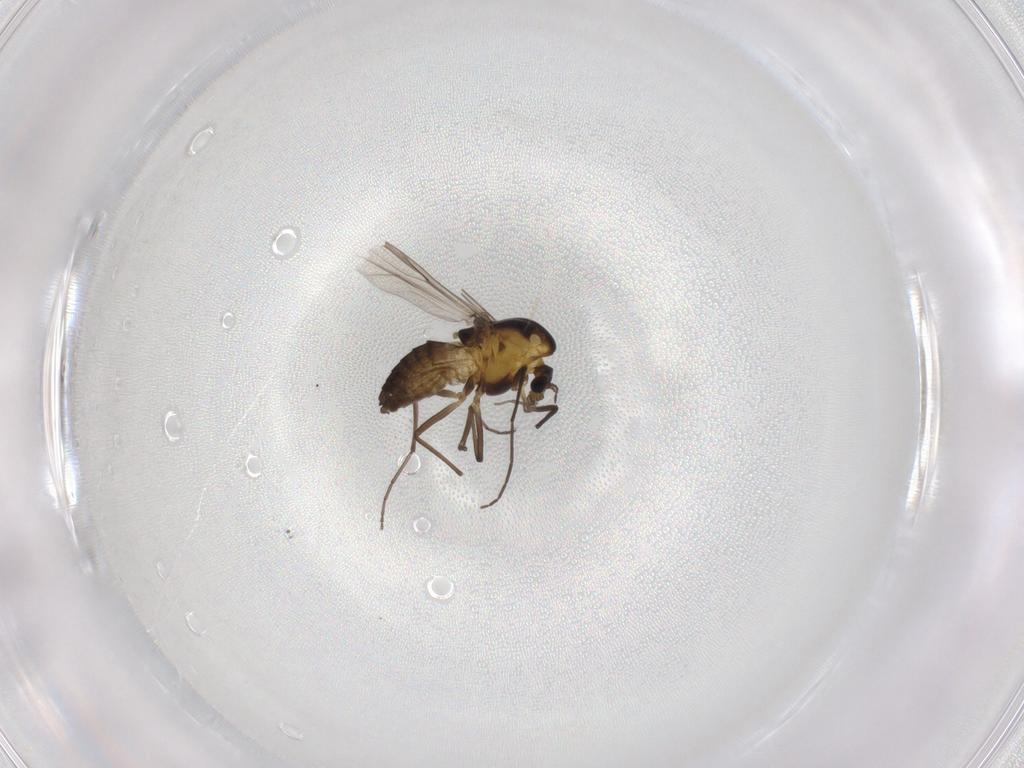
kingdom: Animalia
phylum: Arthropoda
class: Insecta
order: Diptera
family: Chironomidae
